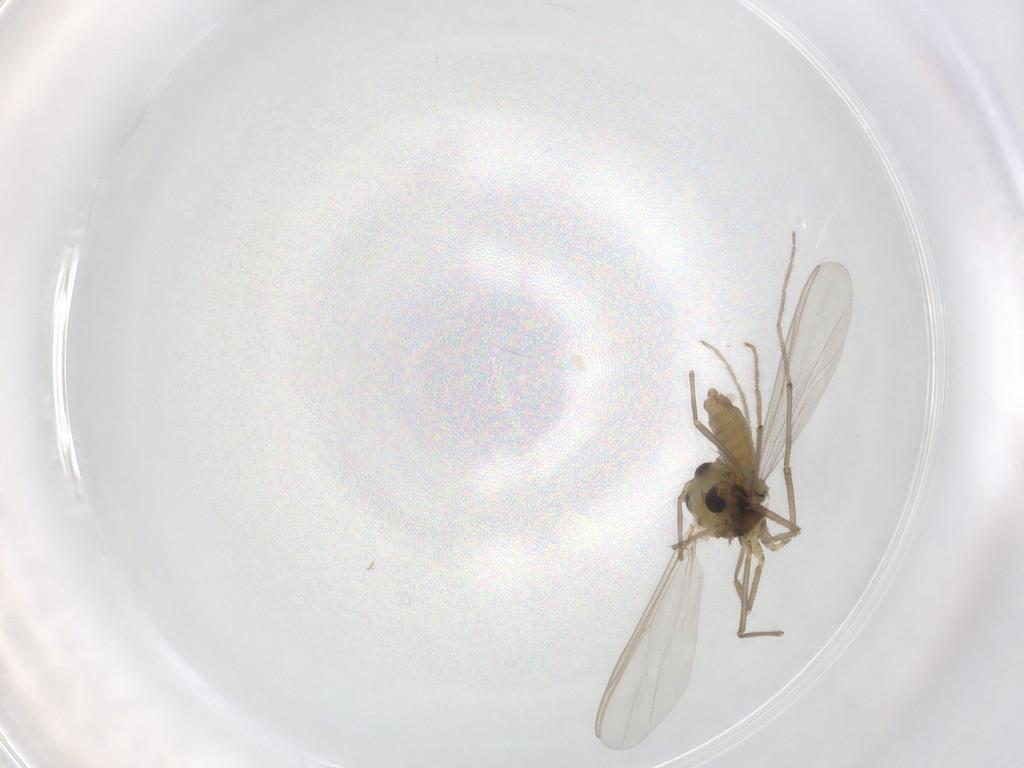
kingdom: Animalia
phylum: Arthropoda
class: Insecta
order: Diptera
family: Chironomidae
